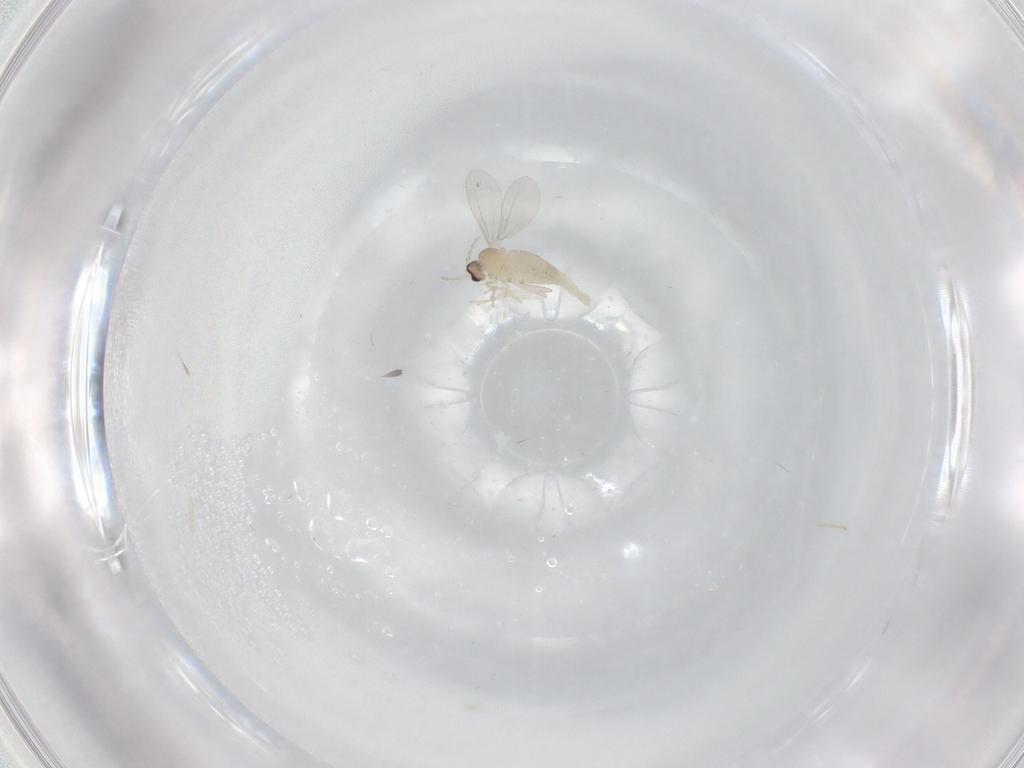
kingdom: Animalia
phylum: Arthropoda
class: Insecta
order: Diptera
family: Cecidomyiidae
